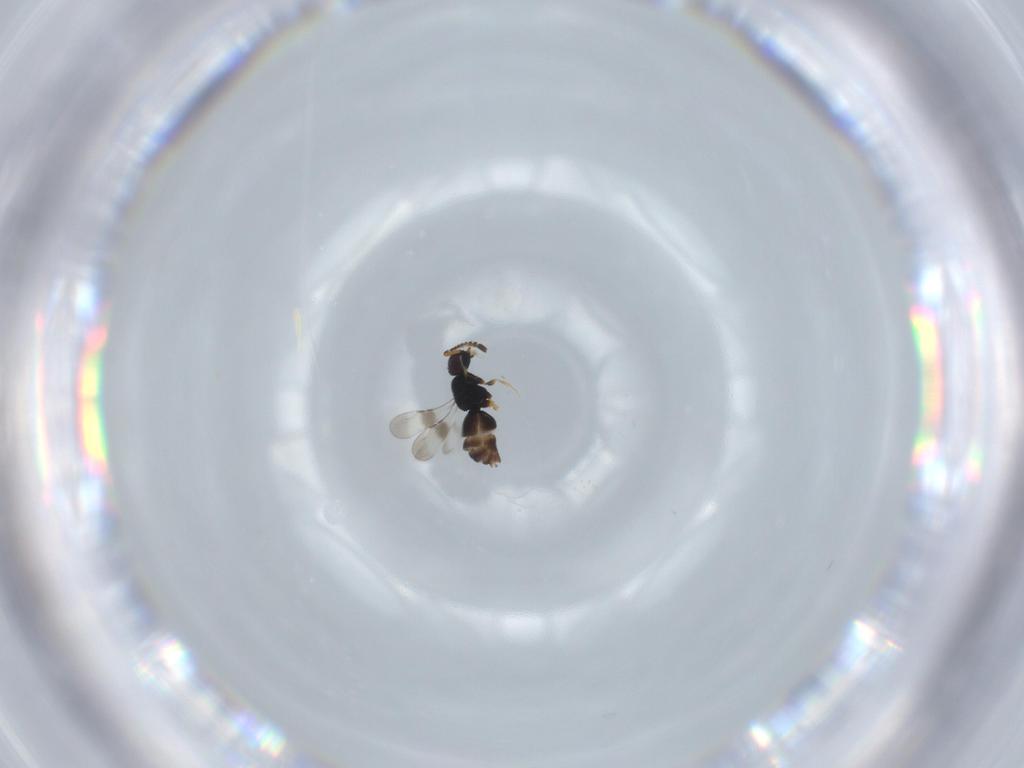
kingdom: Animalia
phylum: Arthropoda
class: Insecta
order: Hymenoptera
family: Ceraphronidae
